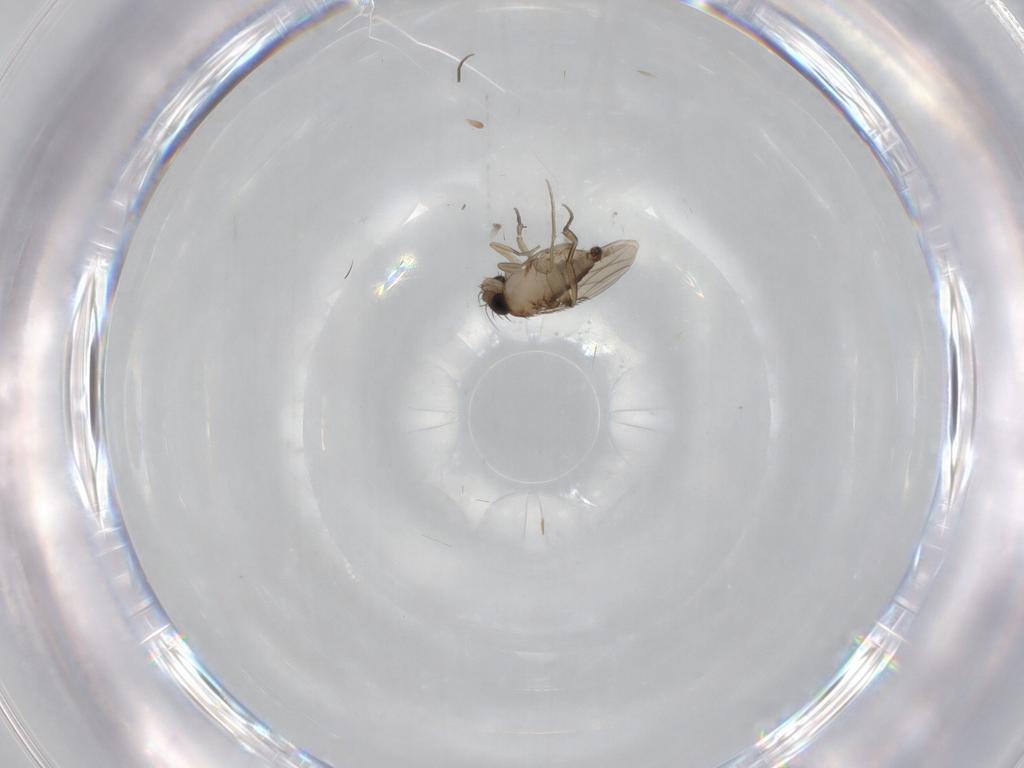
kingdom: Animalia
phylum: Arthropoda
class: Insecta
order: Diptera
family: Phoridae
